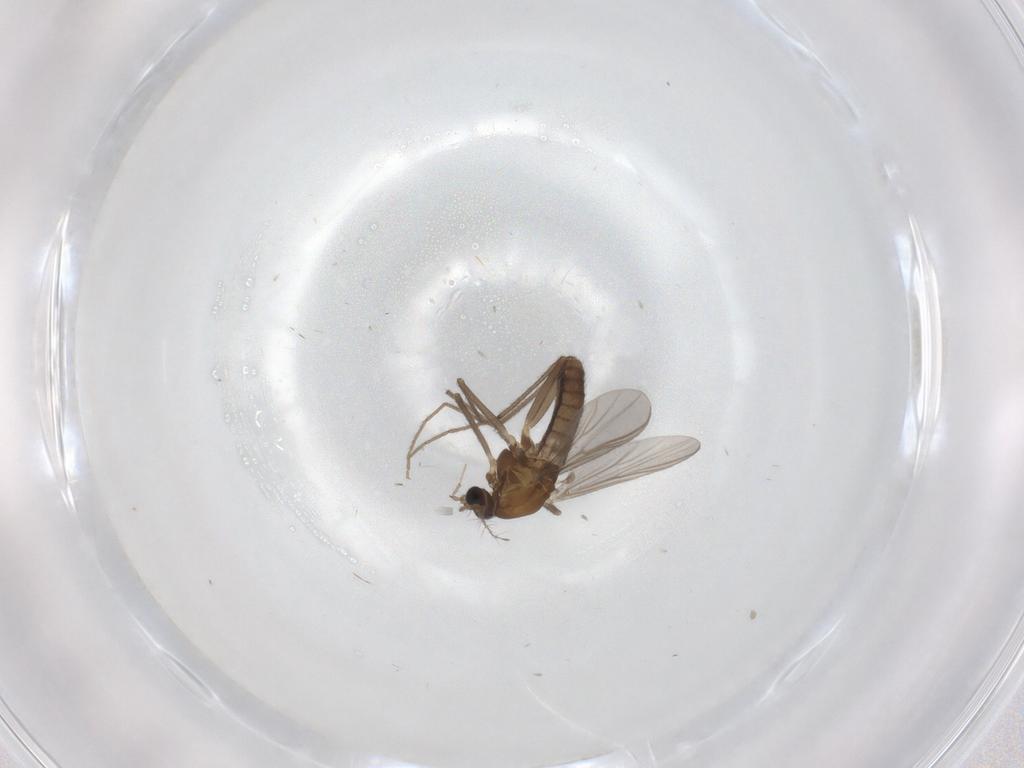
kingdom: Animalia
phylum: Arthropoda
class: Insecta
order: Diptera
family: Chironomidae
